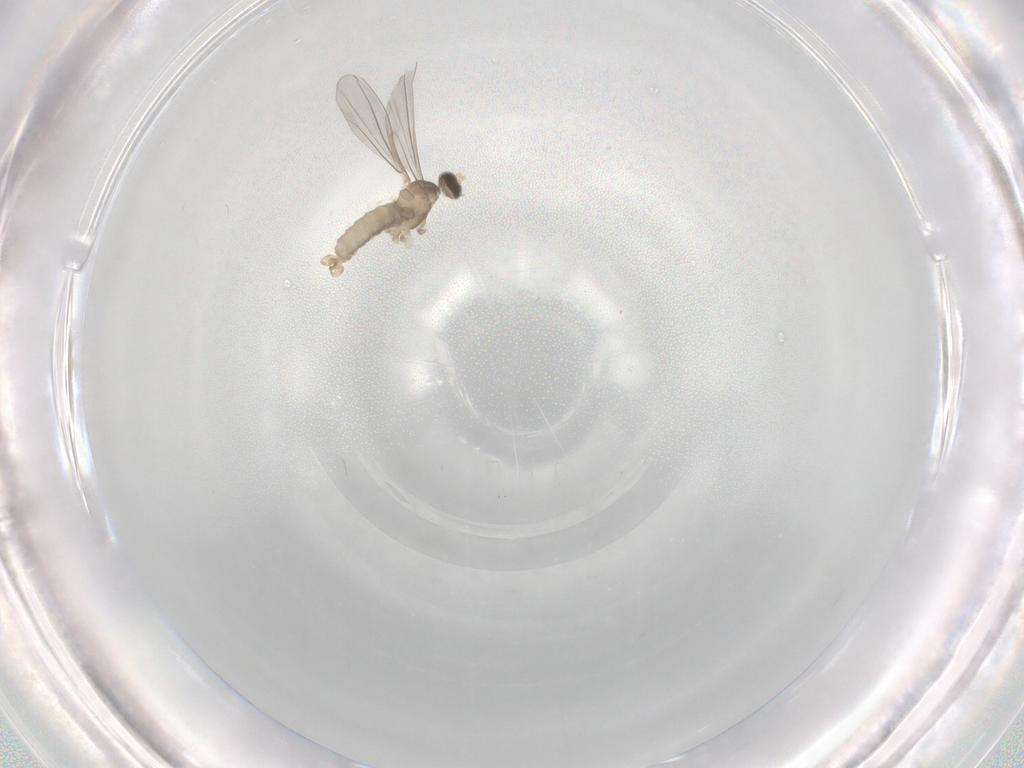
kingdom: Animalia
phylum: Arthropoda
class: Insecta
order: Diptera
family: Cecidomyiidae
